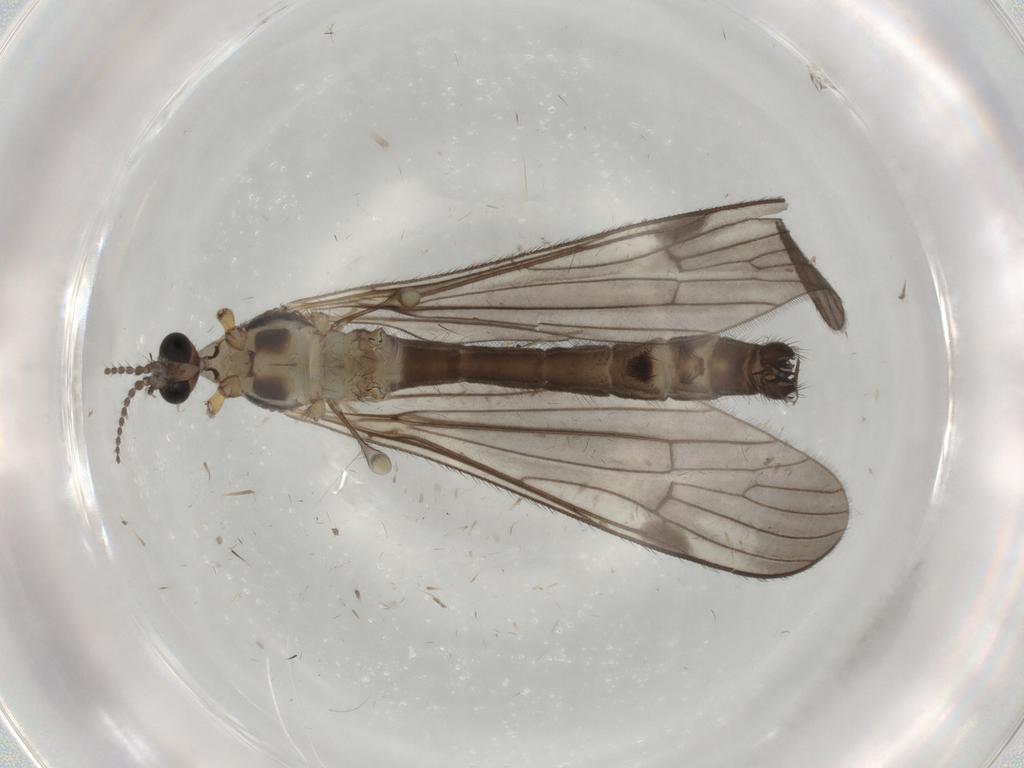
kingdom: Animalia
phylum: Arthropoda
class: Insecta
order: Diptera
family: Limoniidae
